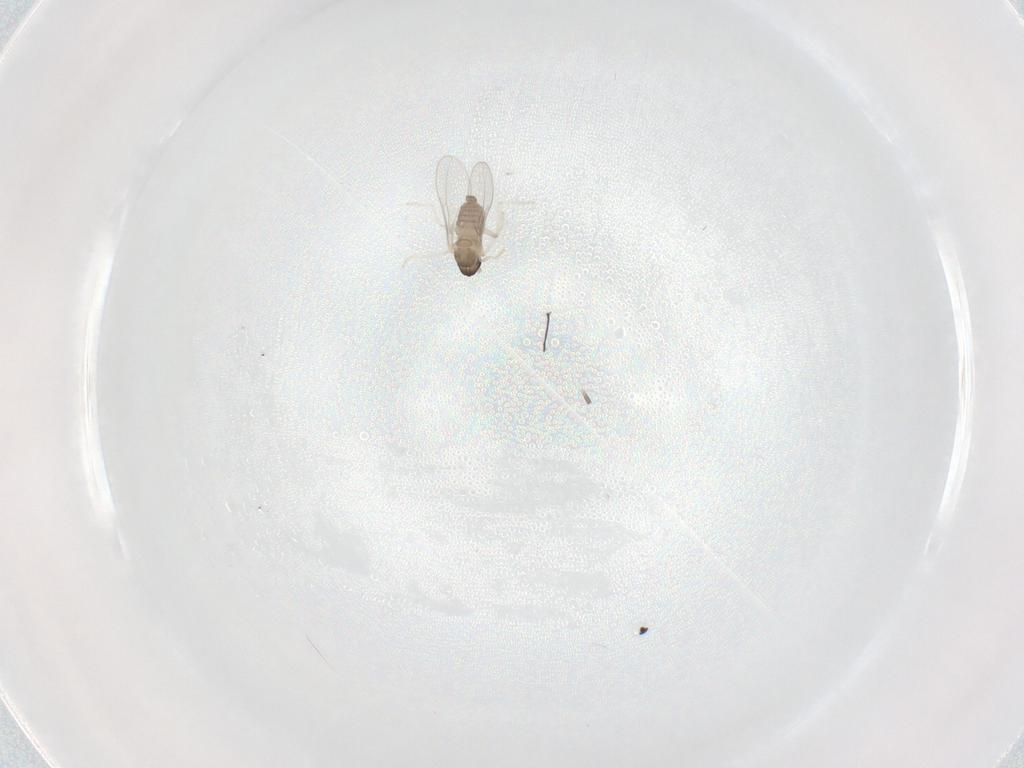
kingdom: Animalia
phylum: Arthropoda
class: Insecta
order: Diptera
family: Cecidomyiidae
